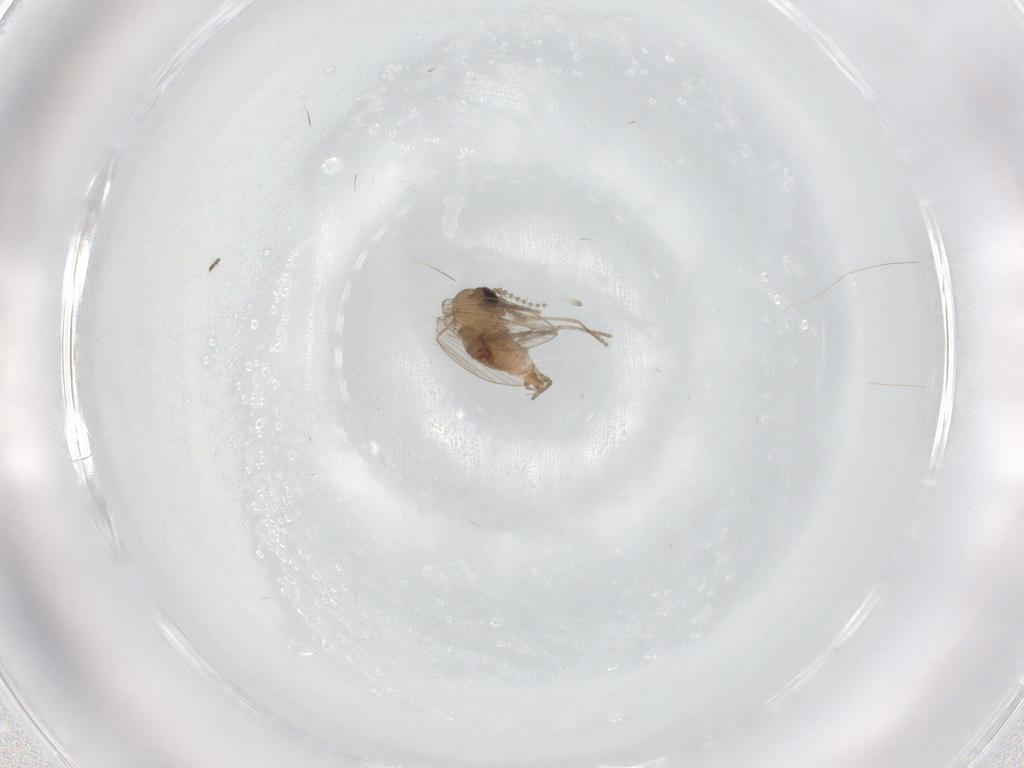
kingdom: Animalia
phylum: Arthropoda
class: Insecta
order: Diptera
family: Psychodidae
